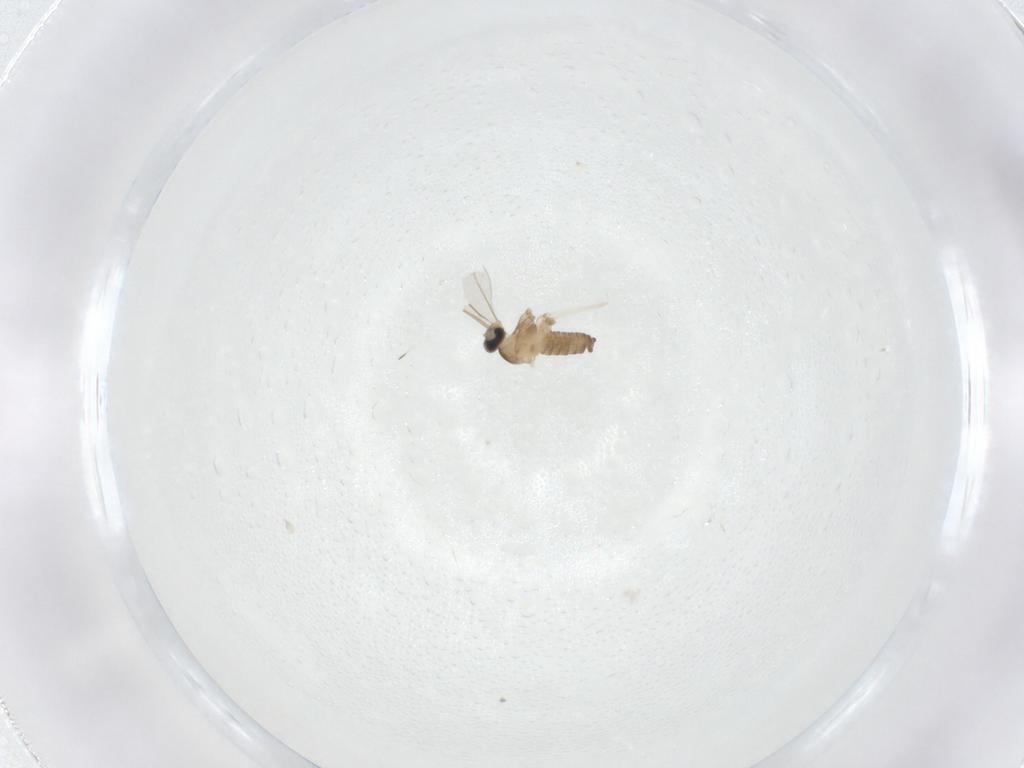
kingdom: Animalia
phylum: Arthropoda
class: Insecta
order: Diptera
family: Cecidomyiidae
